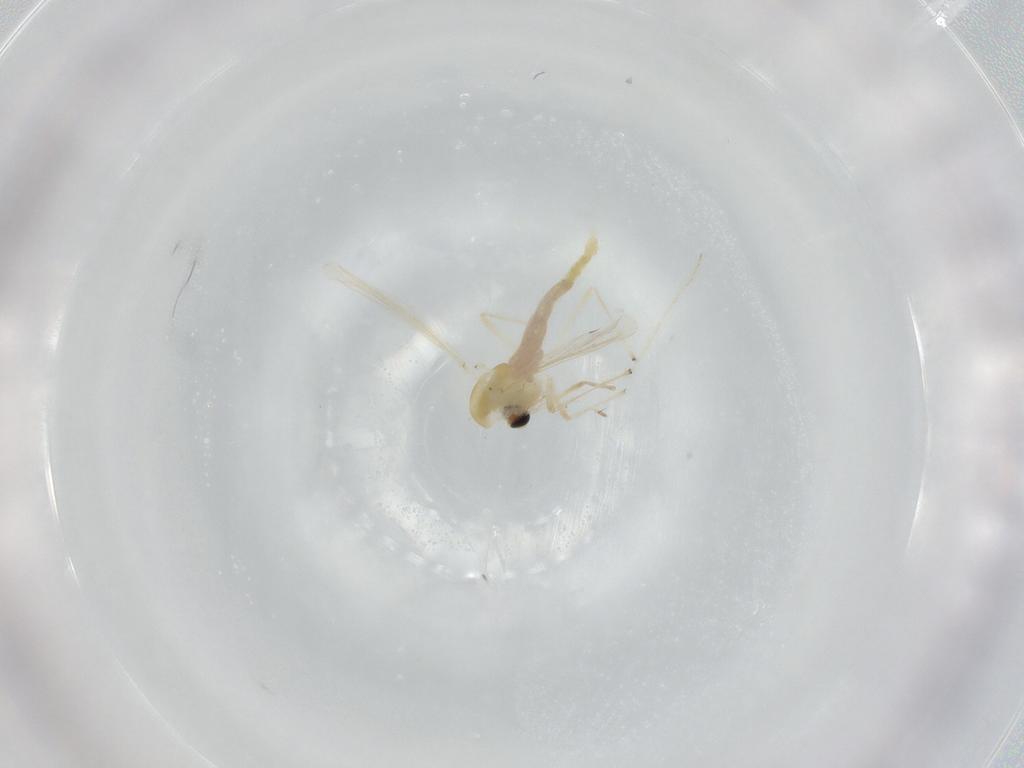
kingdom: Animalia
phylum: Arthropoda
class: Insecta
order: Diptera
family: Chironomidae
